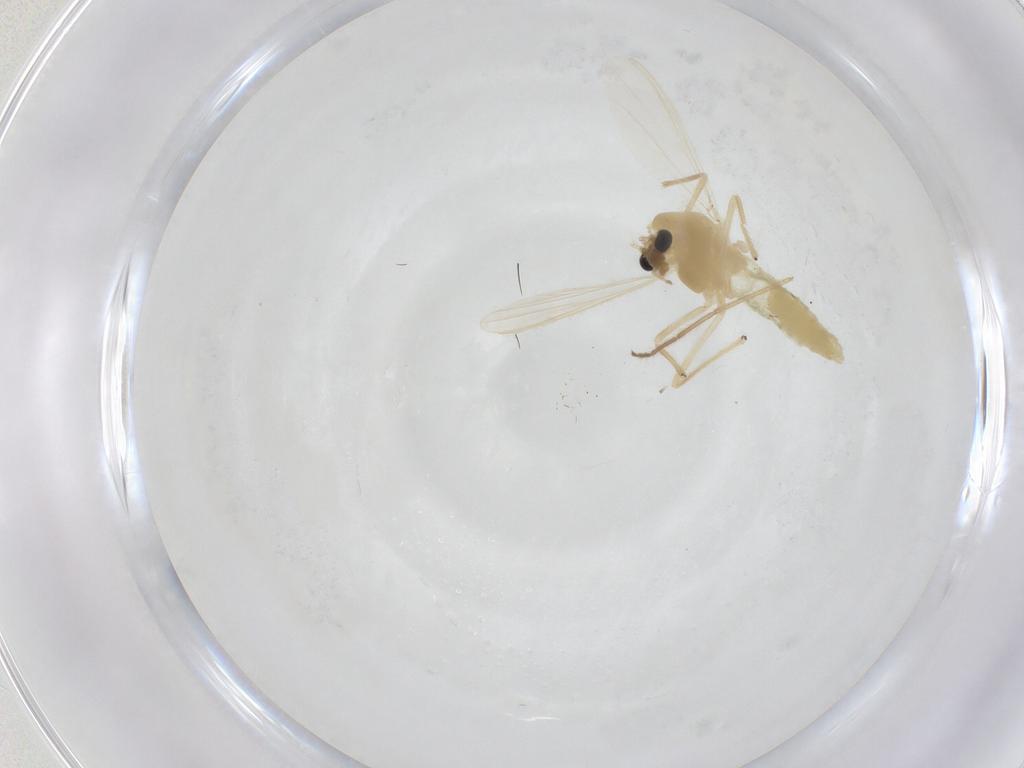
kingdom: Animalia
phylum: Arthropoda
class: Insecta
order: Diptera
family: Chironomidae
